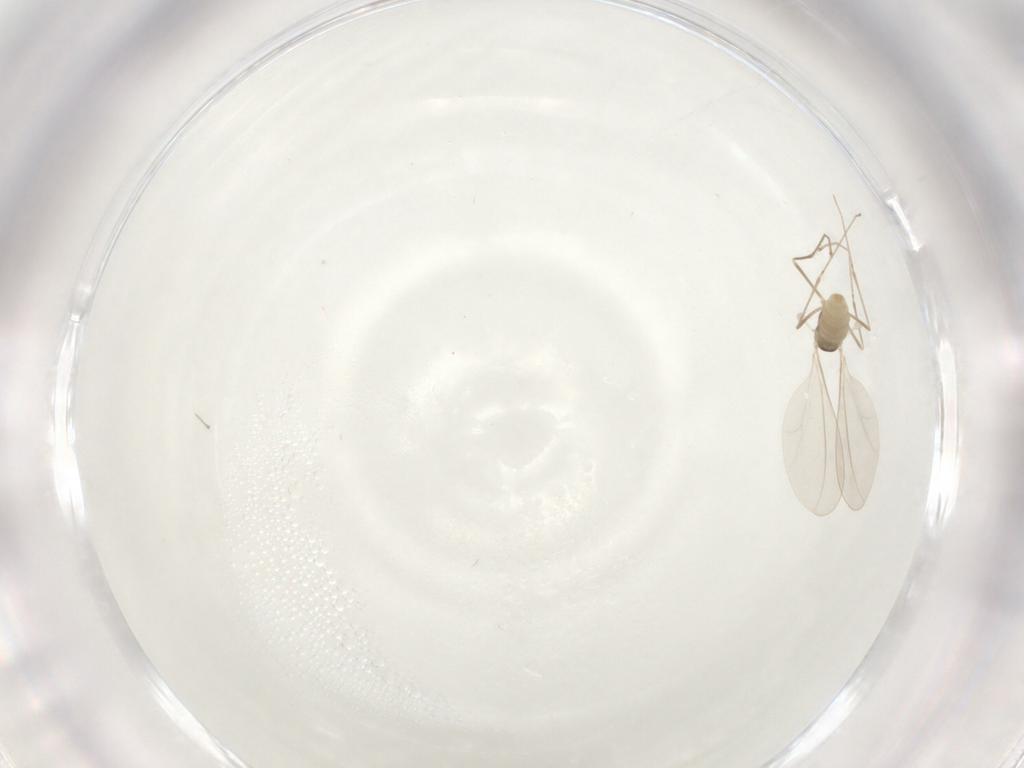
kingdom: Animalia
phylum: Arthropoda
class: Insecta
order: Diptera
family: Cecidomyiidae
